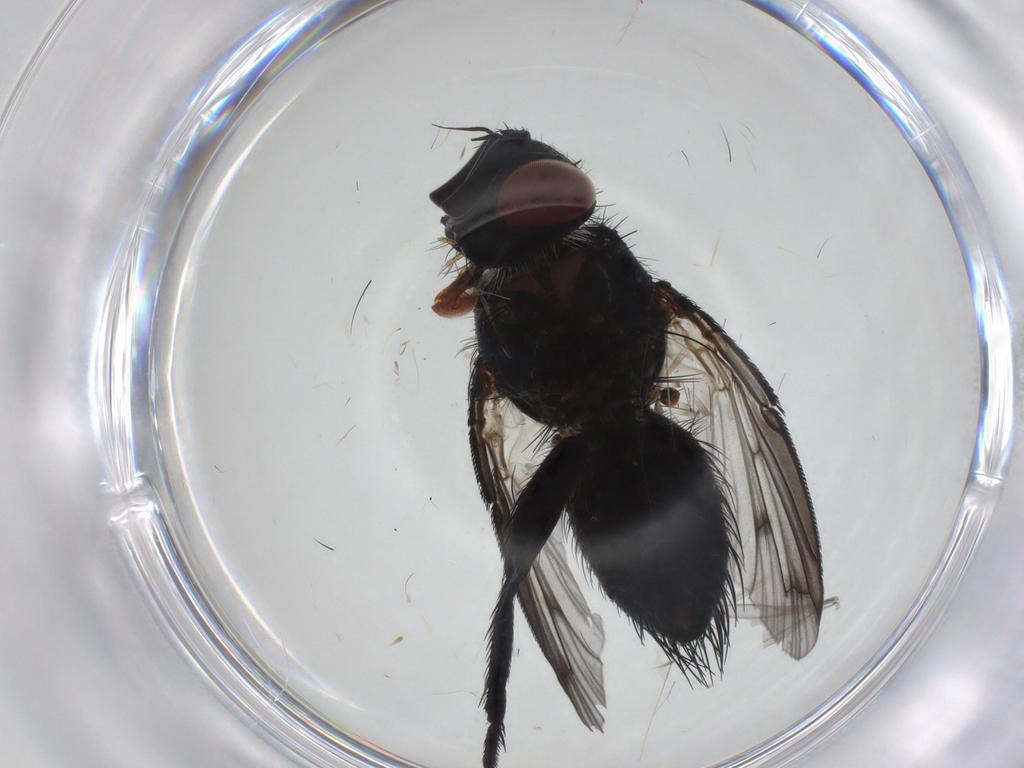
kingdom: Animalia
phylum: Arthropoda
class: Insecta
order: Diptera
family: Tachinidae
